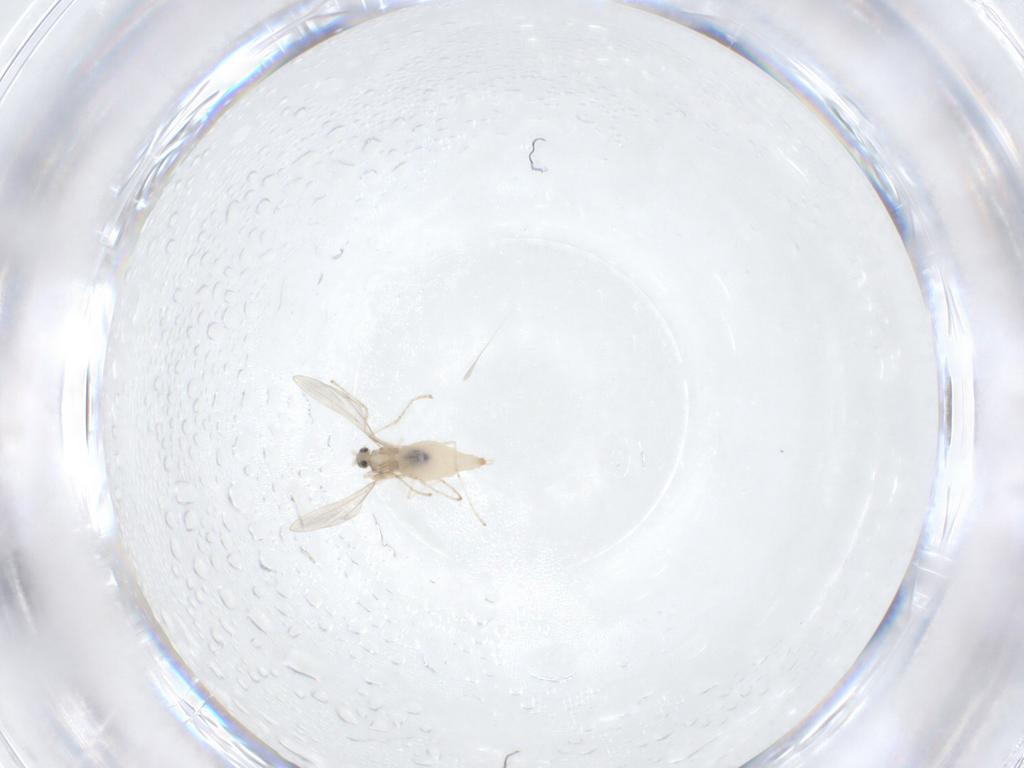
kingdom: Animalia
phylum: Arthropoda
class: Insecta
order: Diptera
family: Cecidomyiidae
